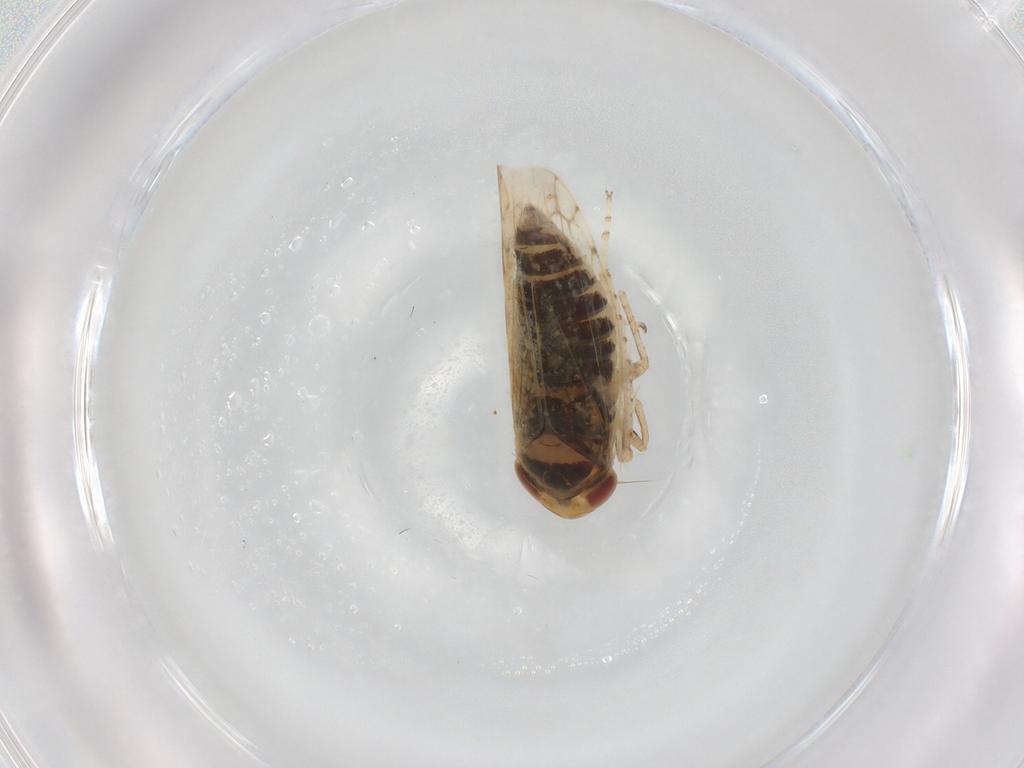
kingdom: Animalia
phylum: Arthropoda
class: Insecta
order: Hemiptera
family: Cicadellidae
